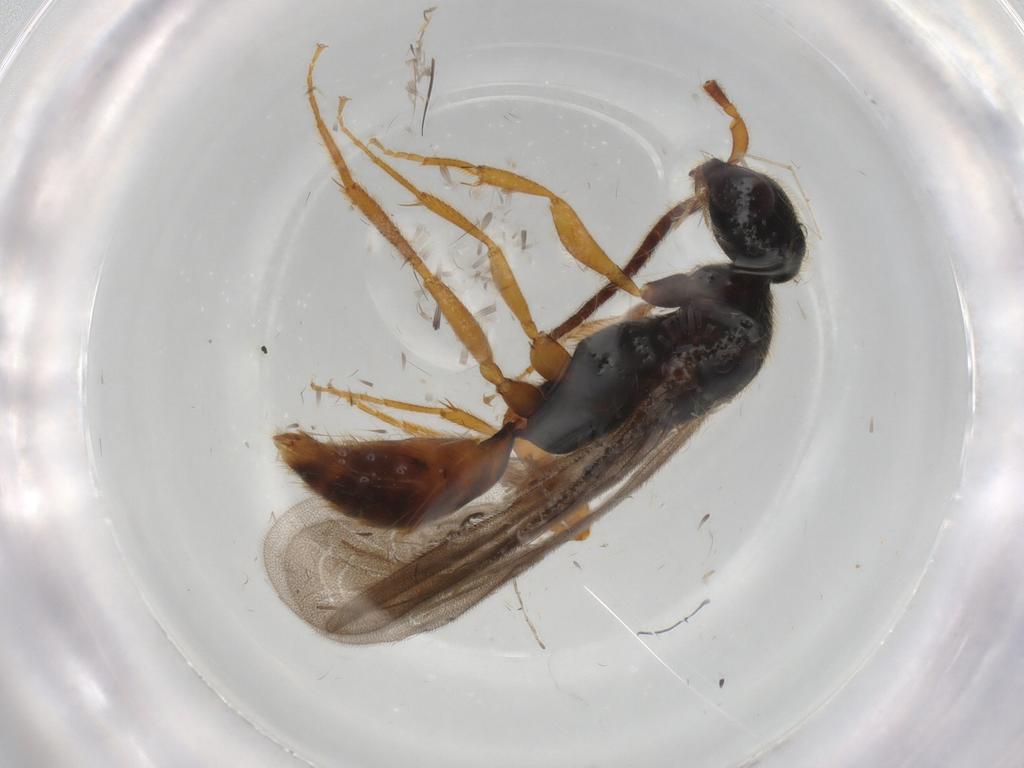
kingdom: Animalia
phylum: Arthropoda
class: Insecta
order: Hymenoptera
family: Bethylidae
